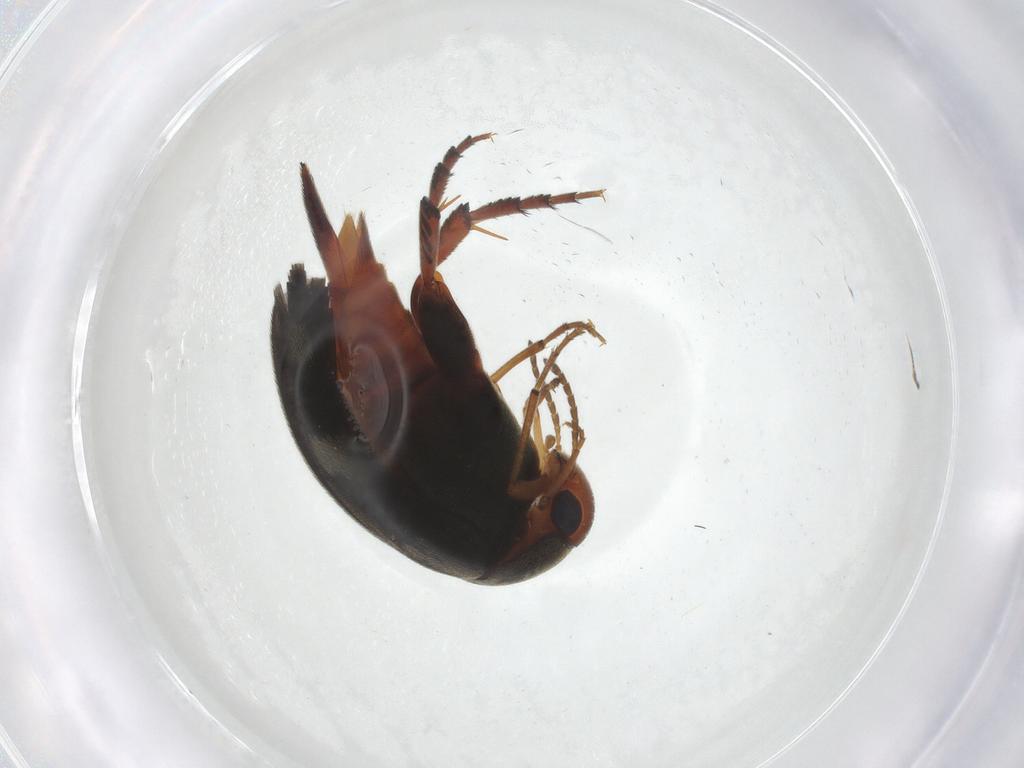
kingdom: Animalia
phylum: Arthropoda
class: Insecta
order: Coleoptera
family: Mordellidae
